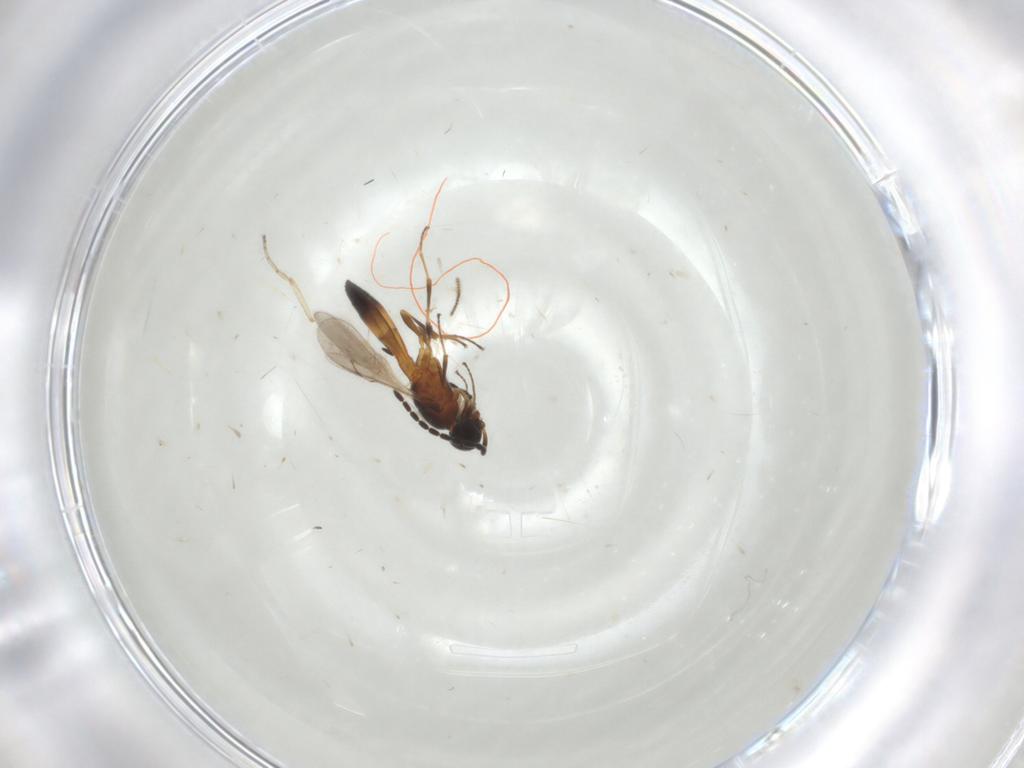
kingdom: Animalia
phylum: Arthropoda
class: Insecta
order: Hymenoptera
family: Scelionidae
